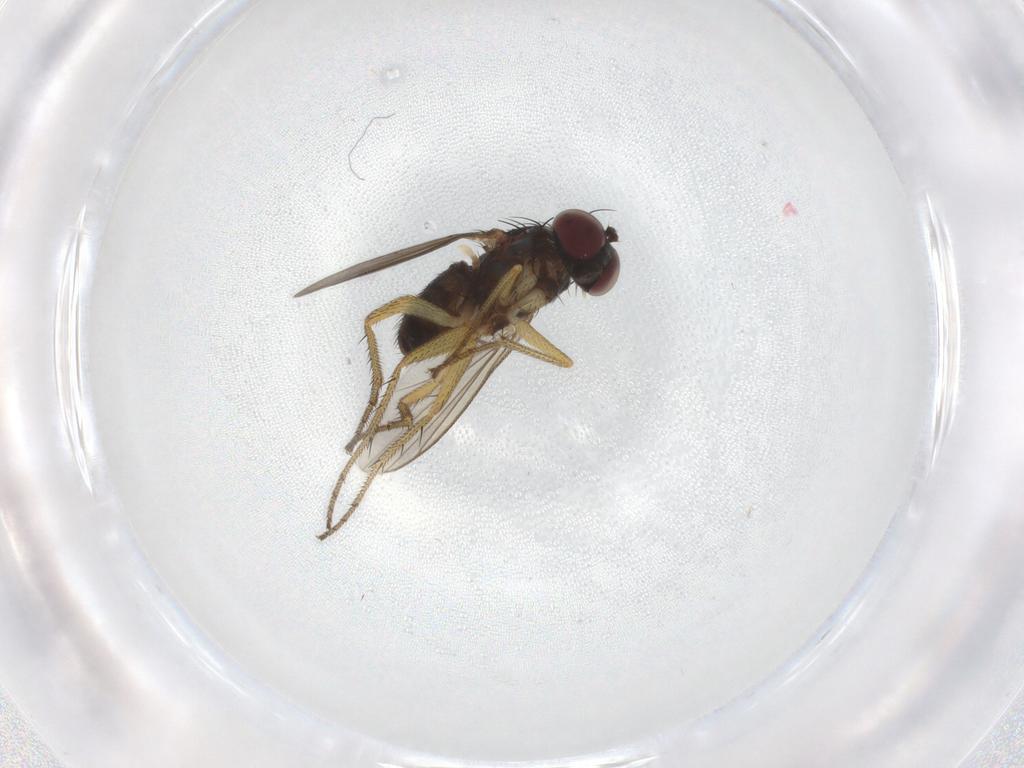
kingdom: Animalia
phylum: Arthropoda
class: Insecta
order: Diptera
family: Sciaridae
